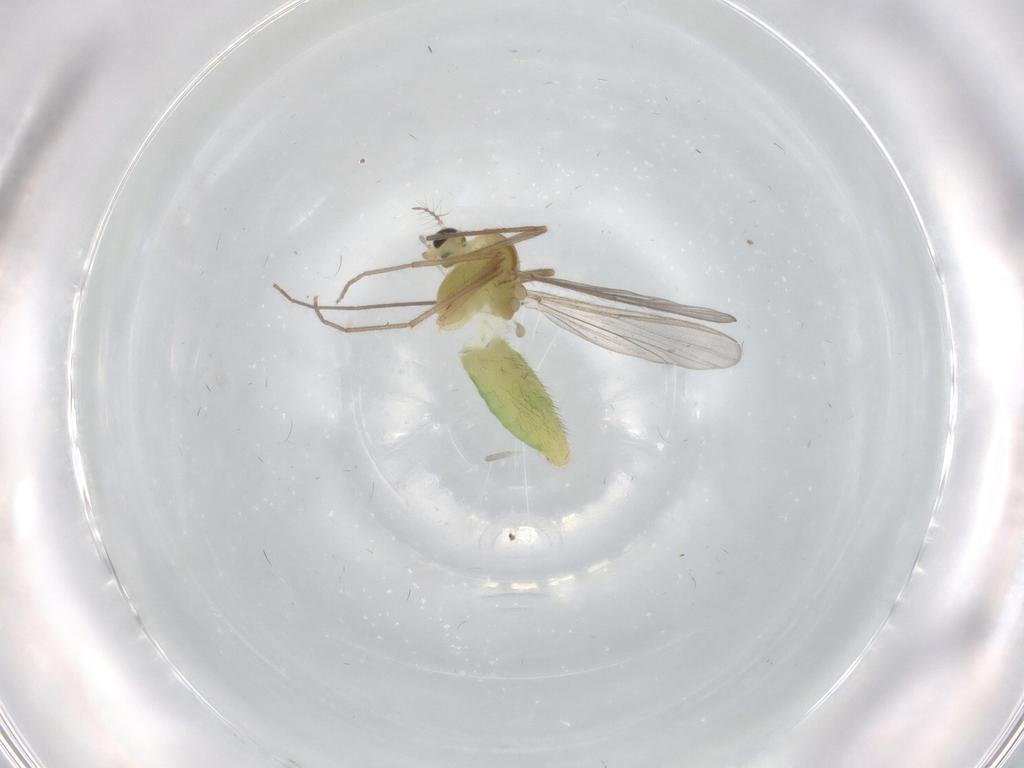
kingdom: Animalia
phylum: Arthropoda
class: Insecta
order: Diptera
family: Chironomidae
